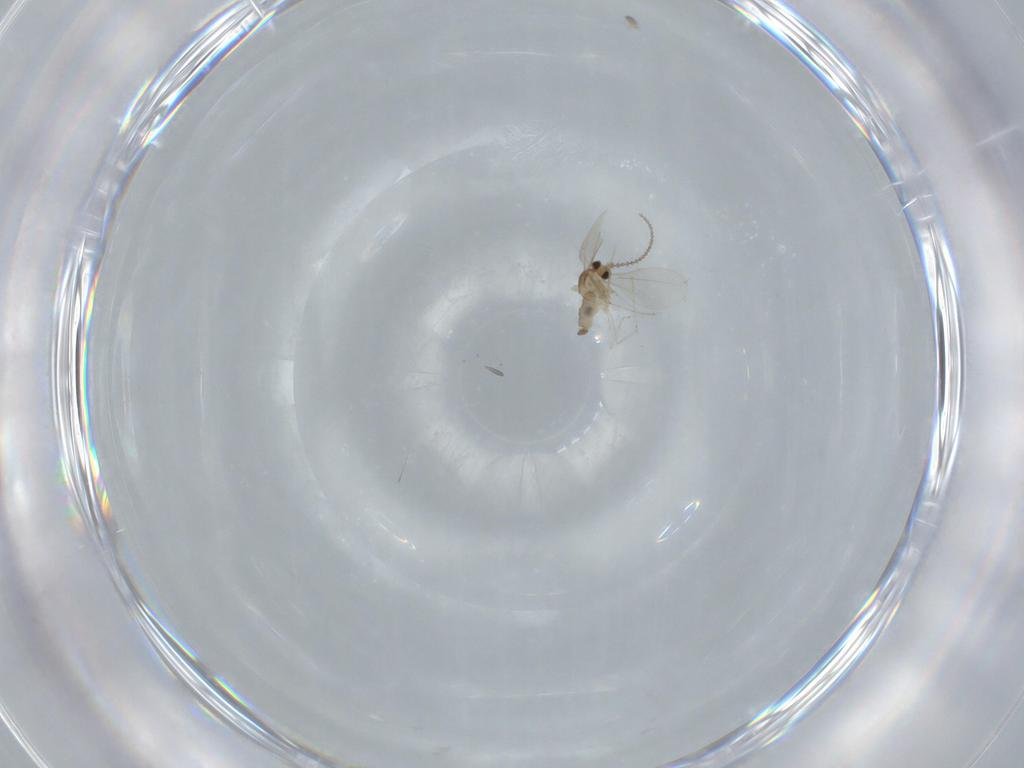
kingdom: Animalia
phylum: Arthropoda
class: Insecta
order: Diptera
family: Cecidomyiidae
